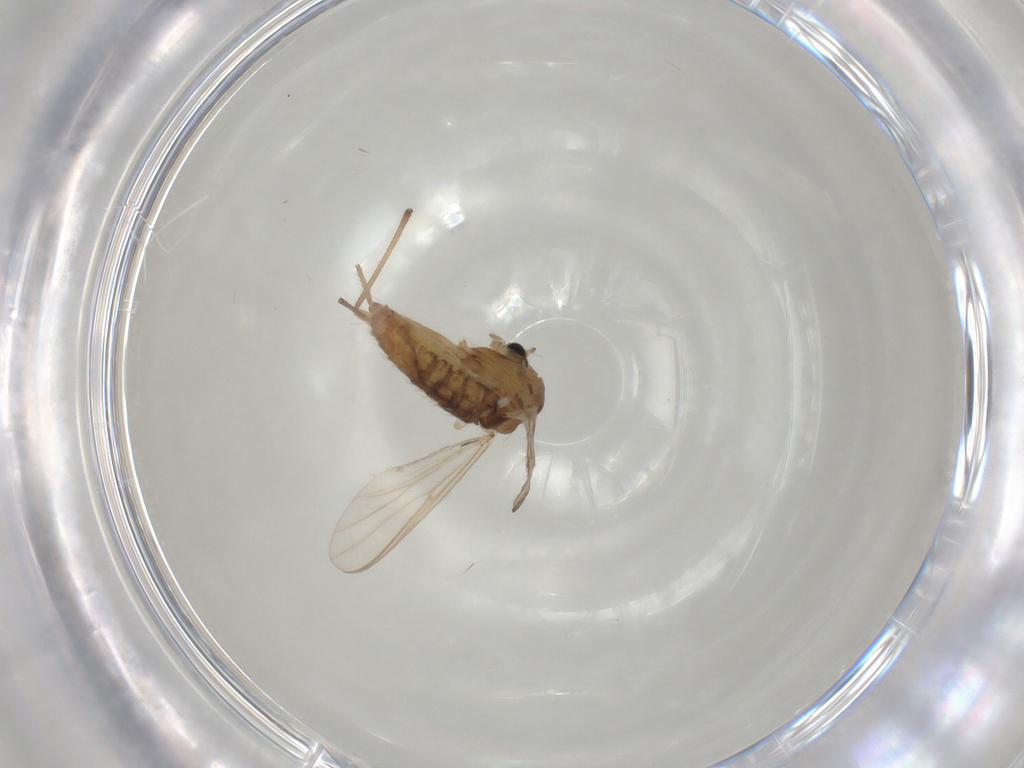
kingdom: Animalia
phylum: Arthropoda
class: Insecta
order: Diptera
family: Chironomidae
